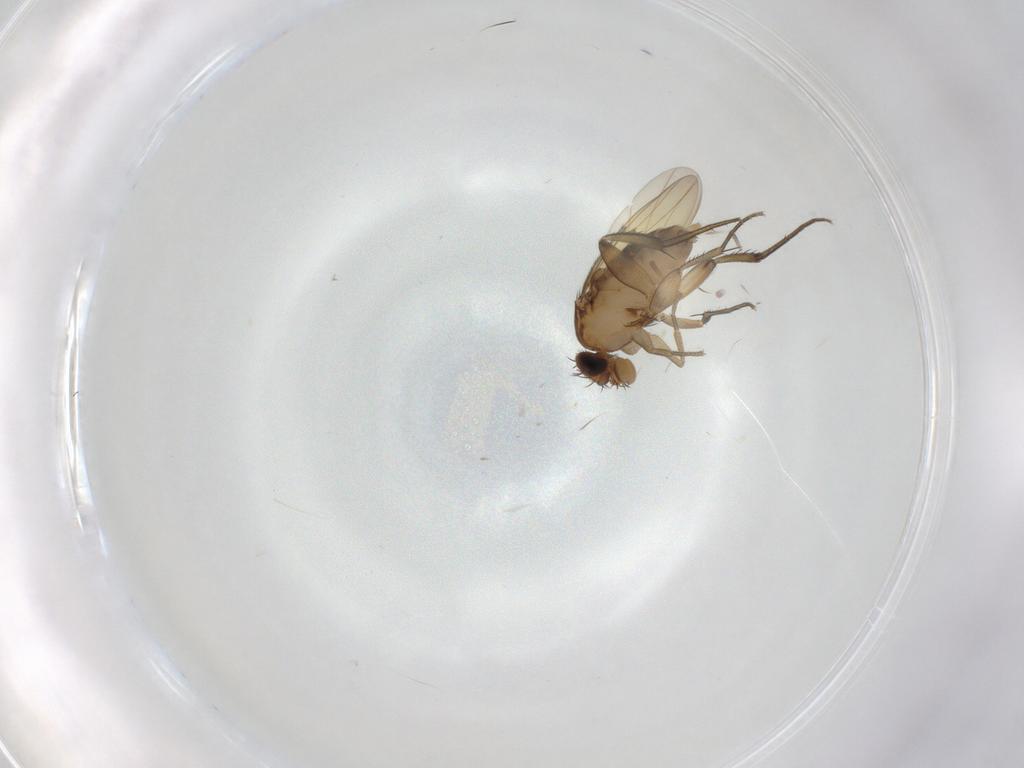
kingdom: Animalia
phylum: Arthropoda
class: Insecta
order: Diptera
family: Phoridae
